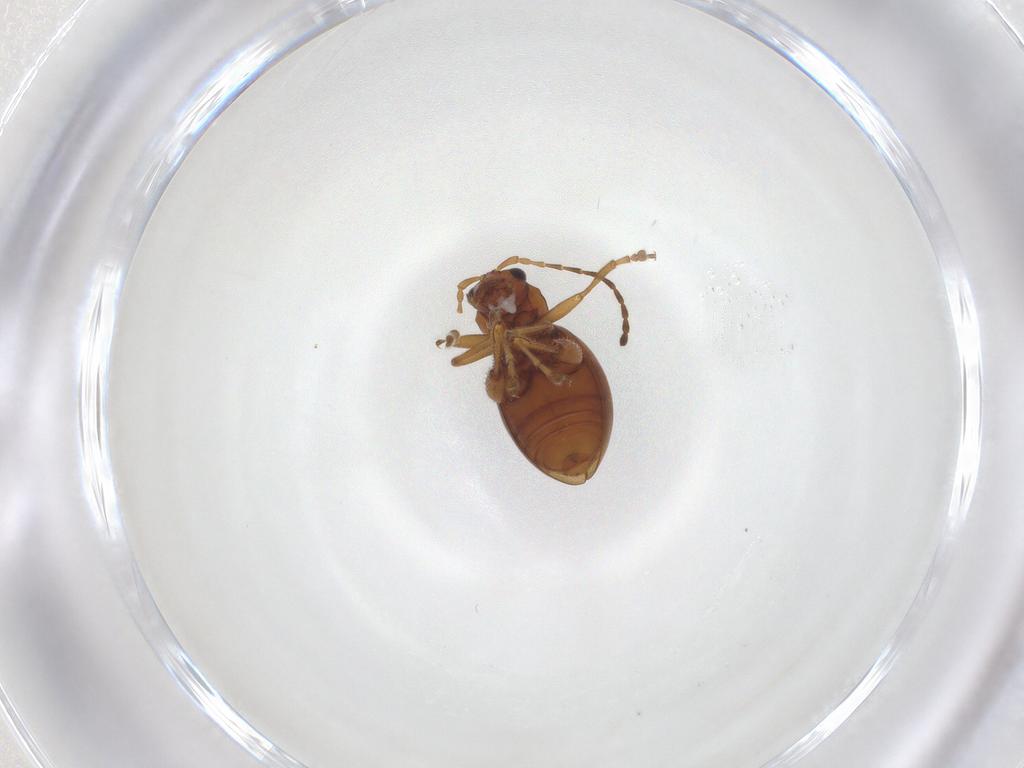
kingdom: Animalia
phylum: Arthropoda
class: Insecta
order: Coleoptera
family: Chrysomelidae
